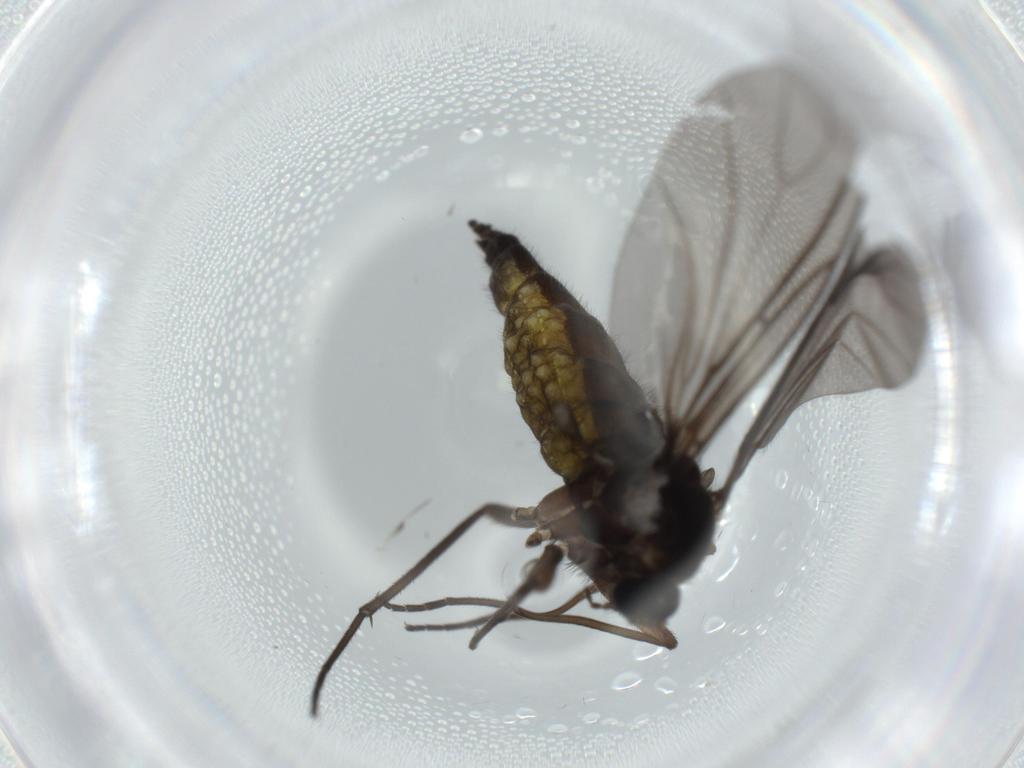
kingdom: Animalia
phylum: Arthropoda
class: Insecta
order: Diptera
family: Sciaridae
